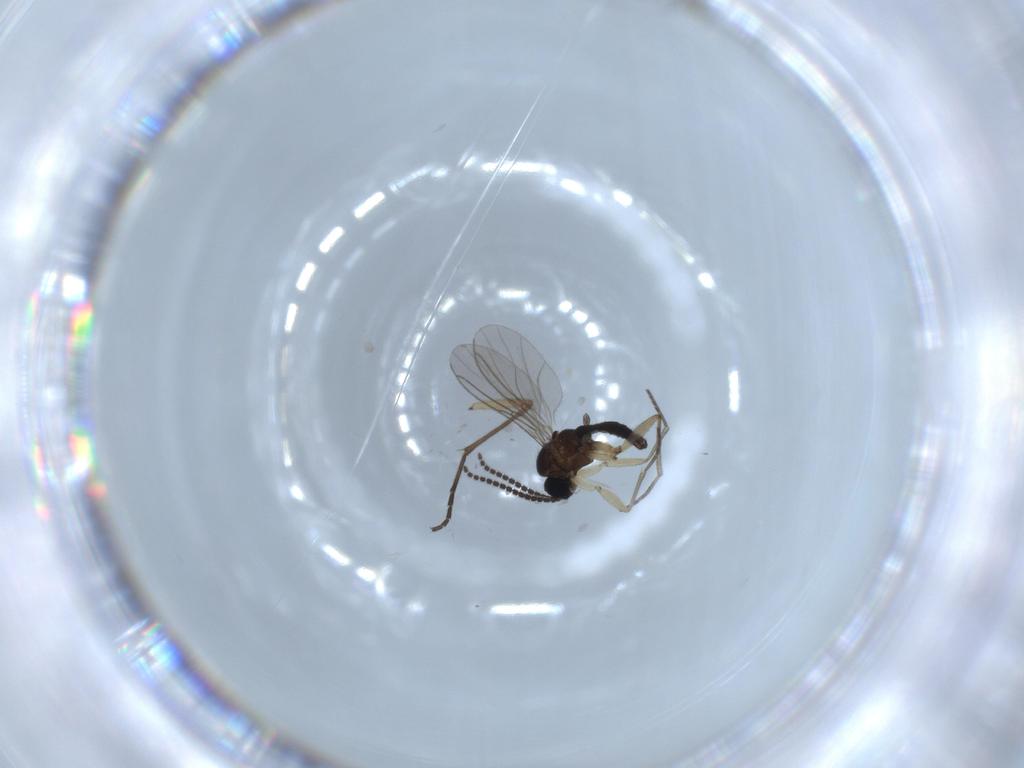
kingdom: Animalia
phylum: Arthropoda
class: Insecta
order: Diptera
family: Sciaridae
